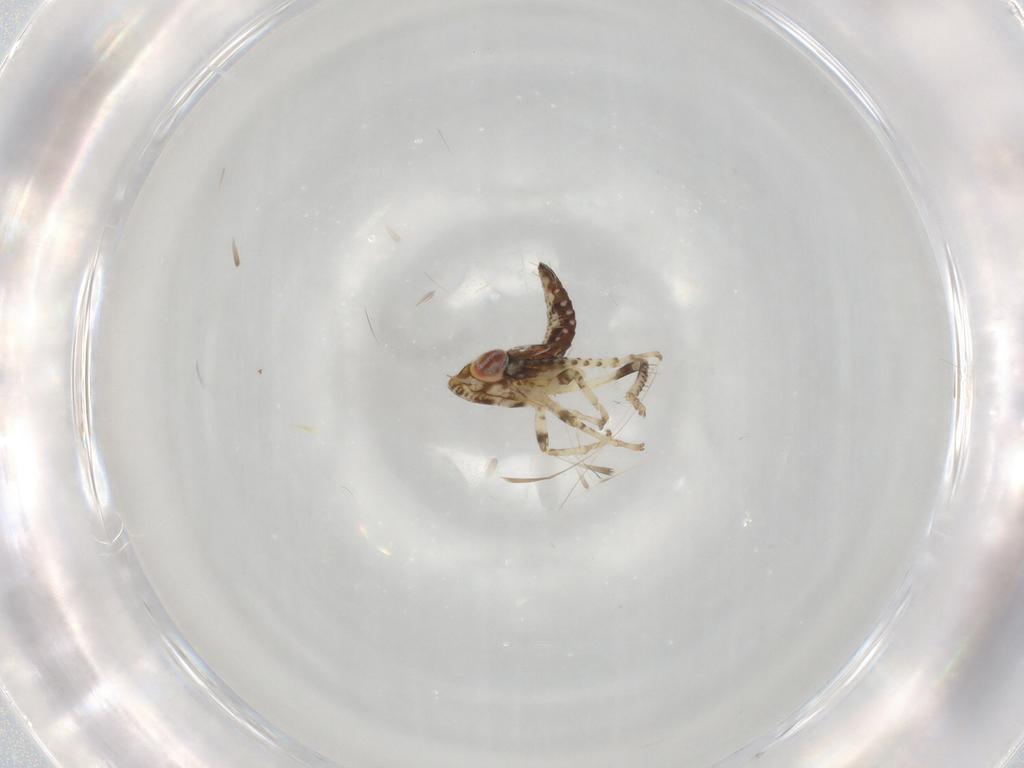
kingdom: Animalia
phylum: Arthropoda
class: Insecta
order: Hemiptera
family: Cicadellidae
